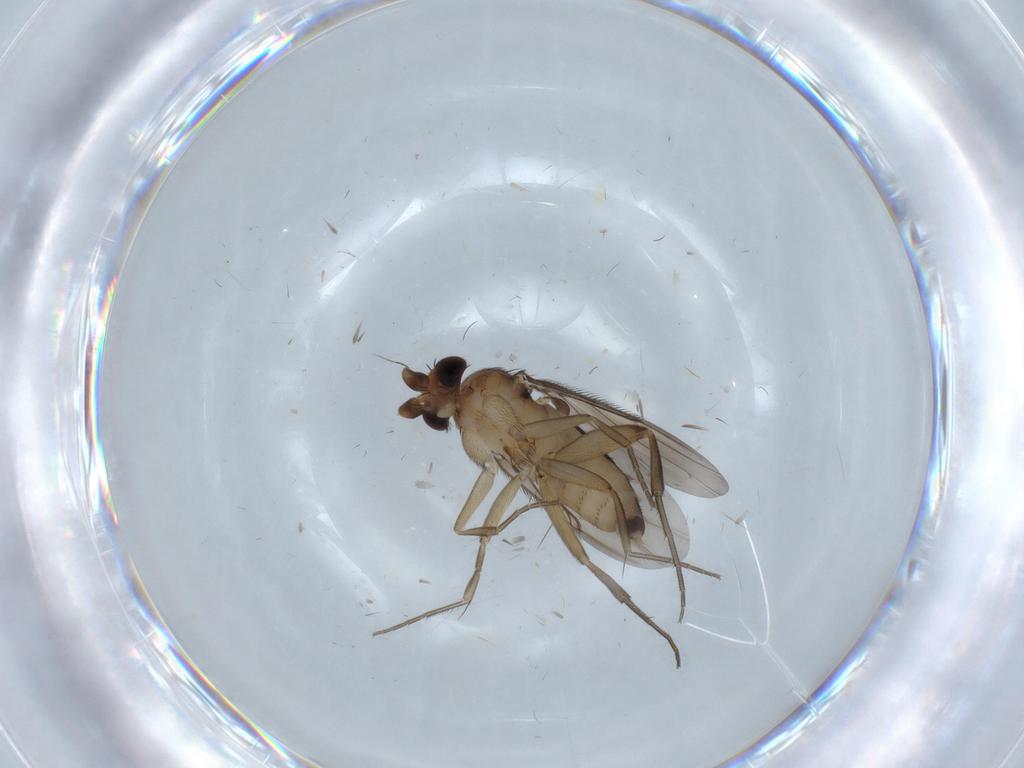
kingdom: Animalia
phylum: Arthropoda
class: Insecta
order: Diptera
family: Phoridae
